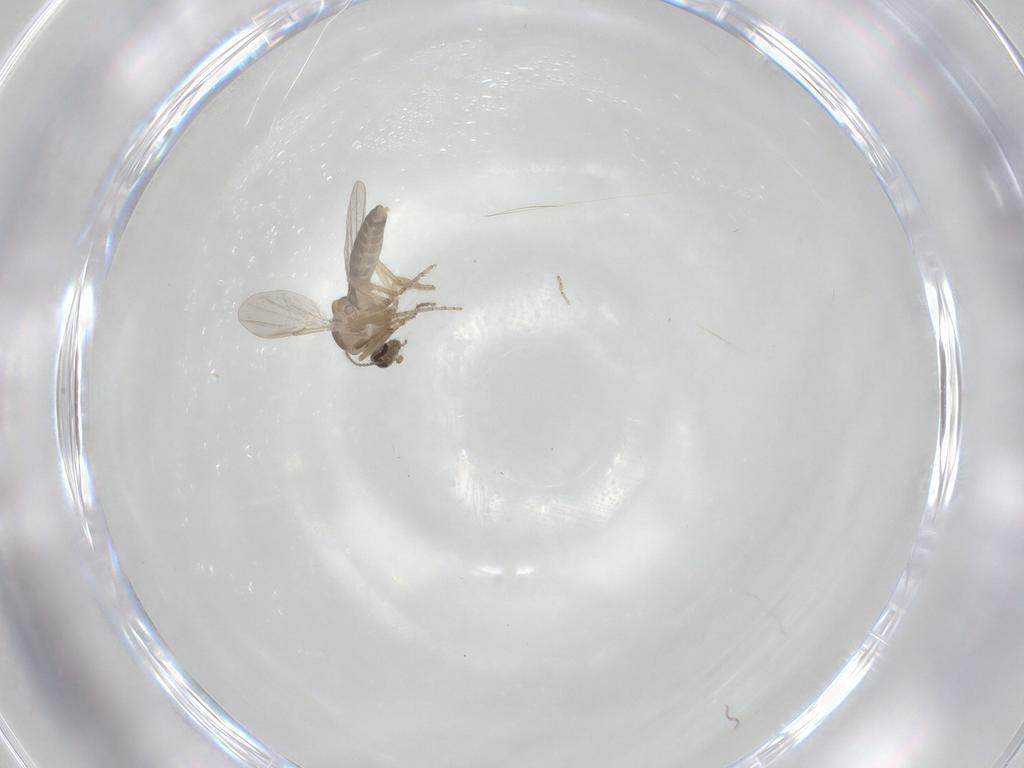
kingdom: Animalia
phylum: Arthropoda
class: Insecta
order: Diptera
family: Ceratopogonidae
